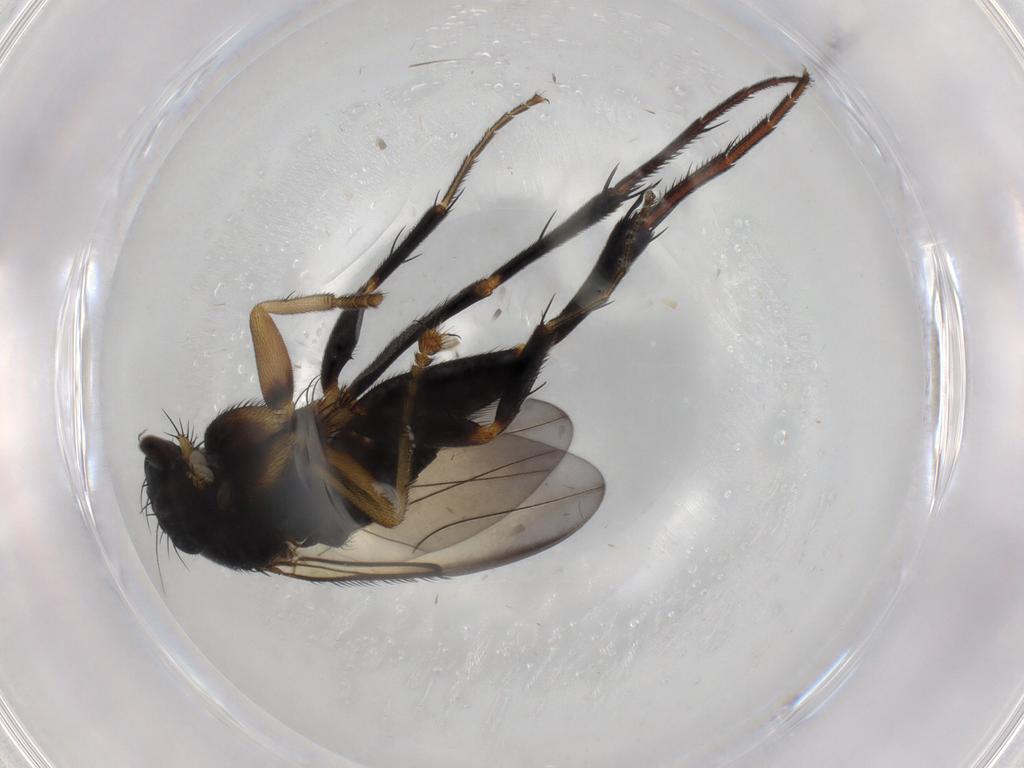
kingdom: Animalia
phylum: Arthropoda
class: Insecta
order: Diptera
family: Phoridae
